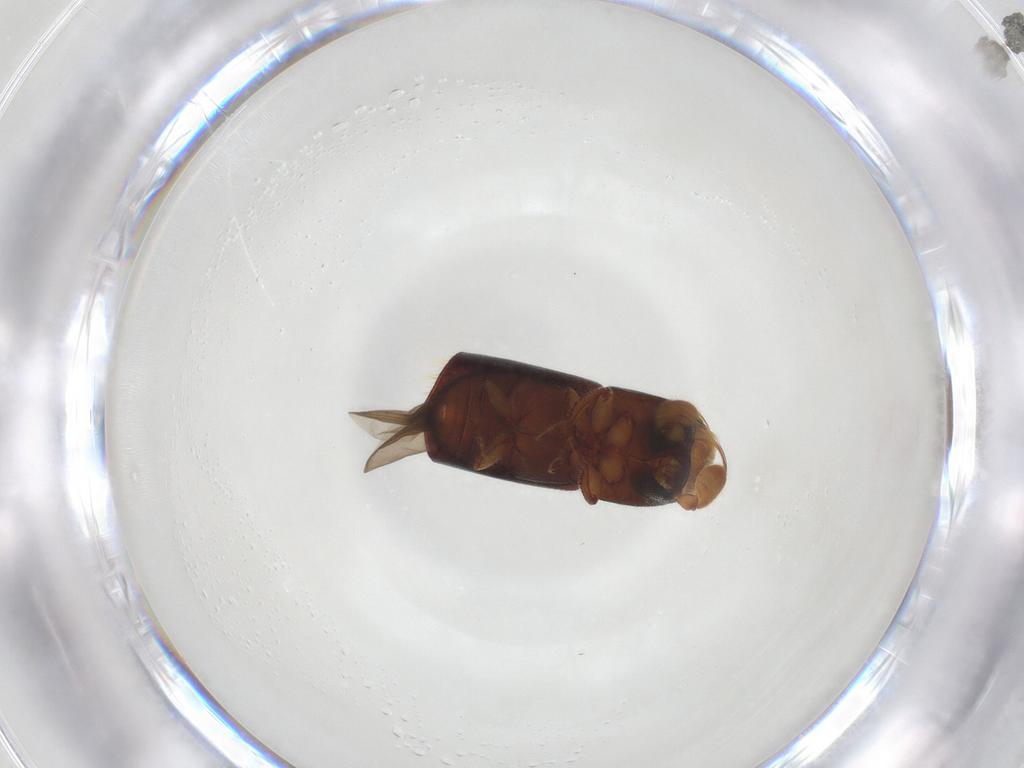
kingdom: Animalia
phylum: Arthropoda
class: Insecta
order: Coleoptera
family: Curculionidae
